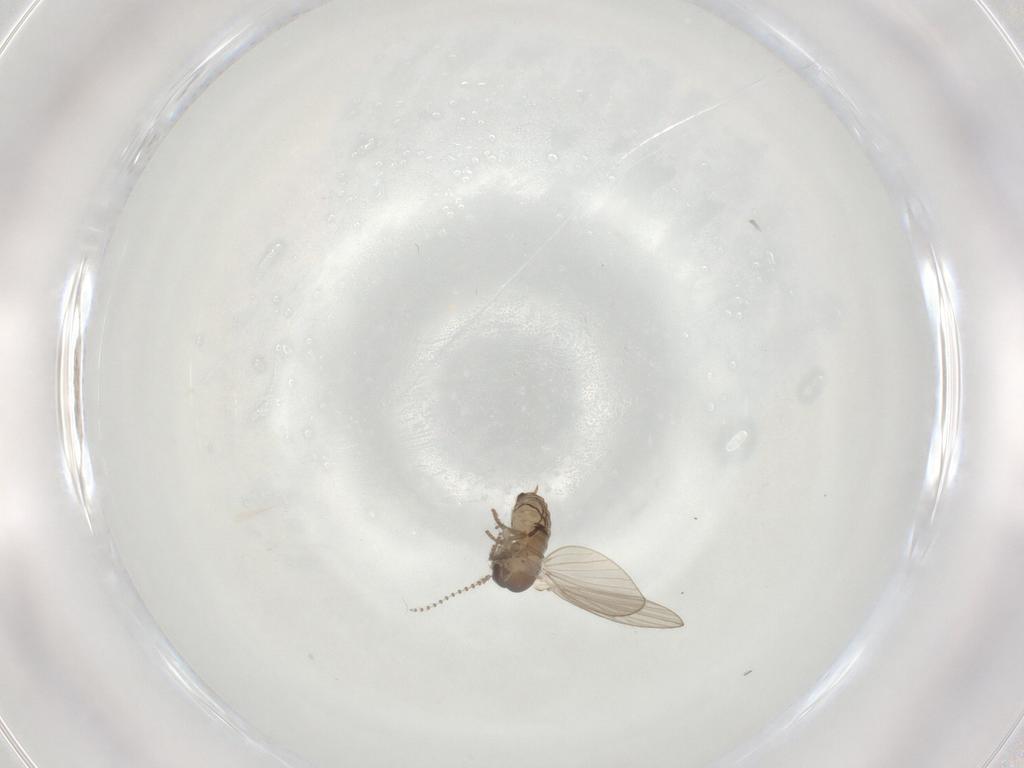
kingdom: Animalia
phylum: Arthropoda
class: Insecta
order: Diptera
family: Psychodidae
